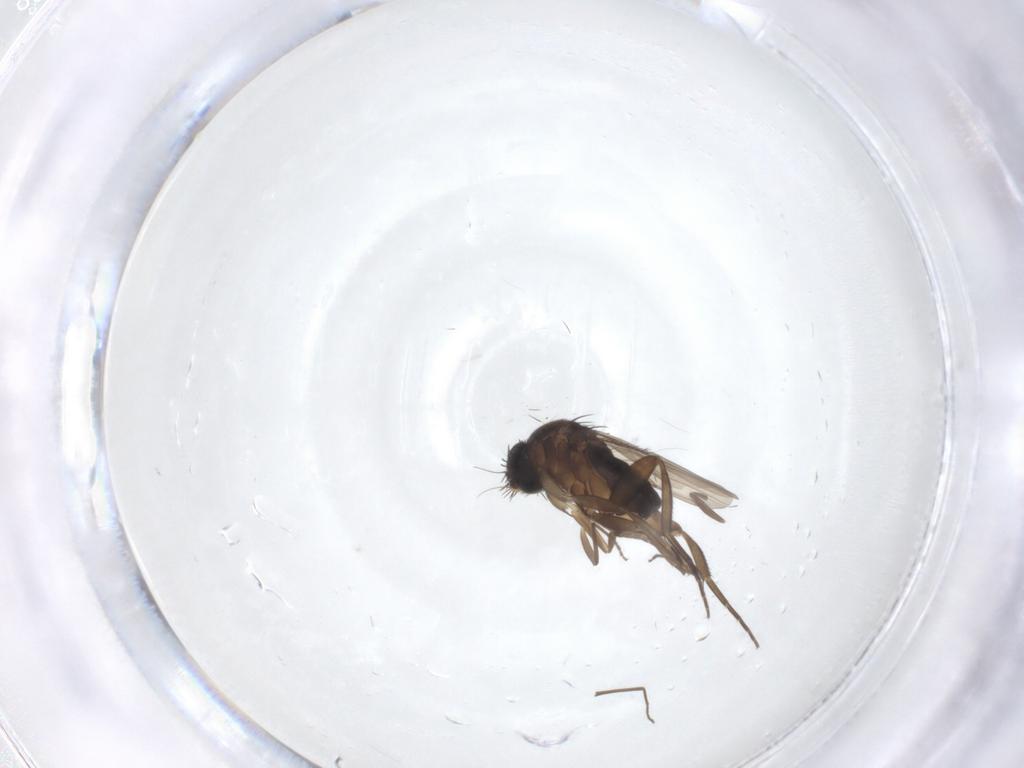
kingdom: Animalia
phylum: Arthropoda
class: Insecta
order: Diptera
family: Phoridae
